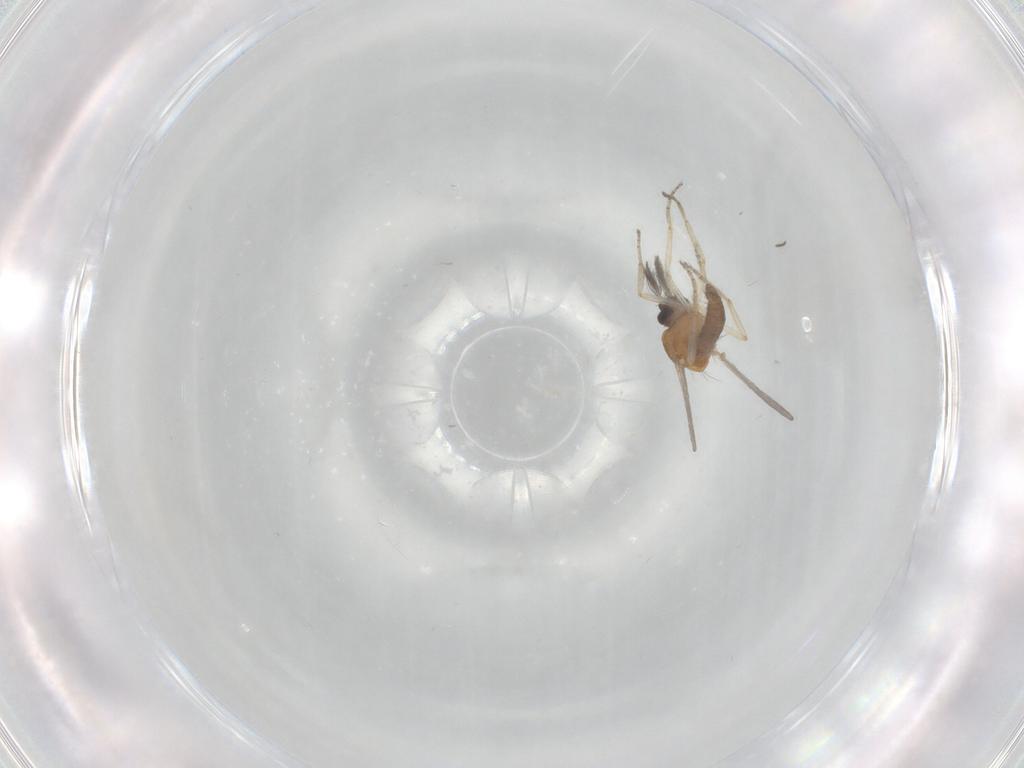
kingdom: Animalia
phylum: Arthropoda
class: Insecta
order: Diptera
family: Ceratopogonidae
